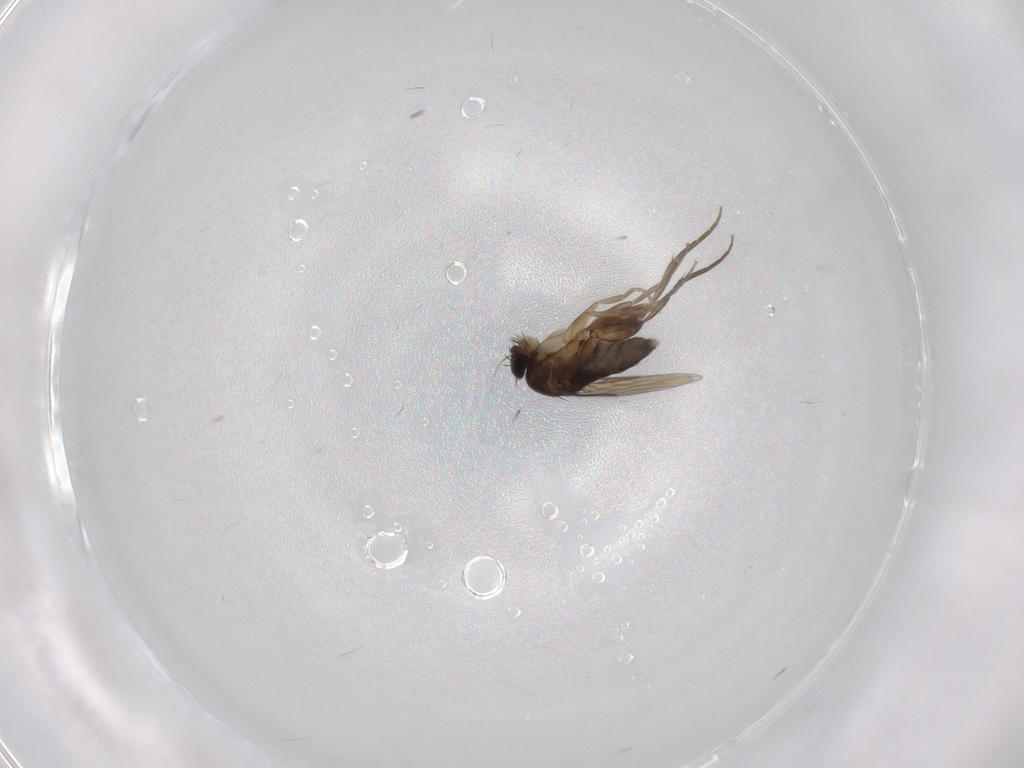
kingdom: Animalia
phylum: Arthropoda
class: Insecta
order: Diptera
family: Phoridae
